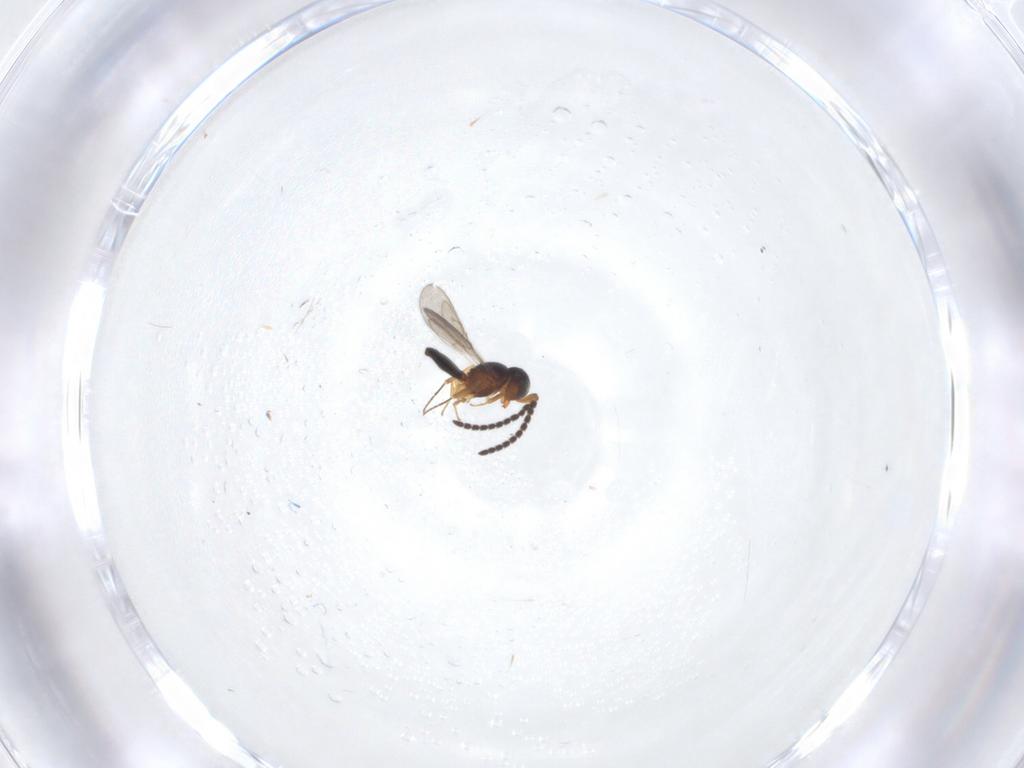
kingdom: Animalia
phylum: Arthropoda
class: Insecta
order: Hymenoptera
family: Scelionidae
